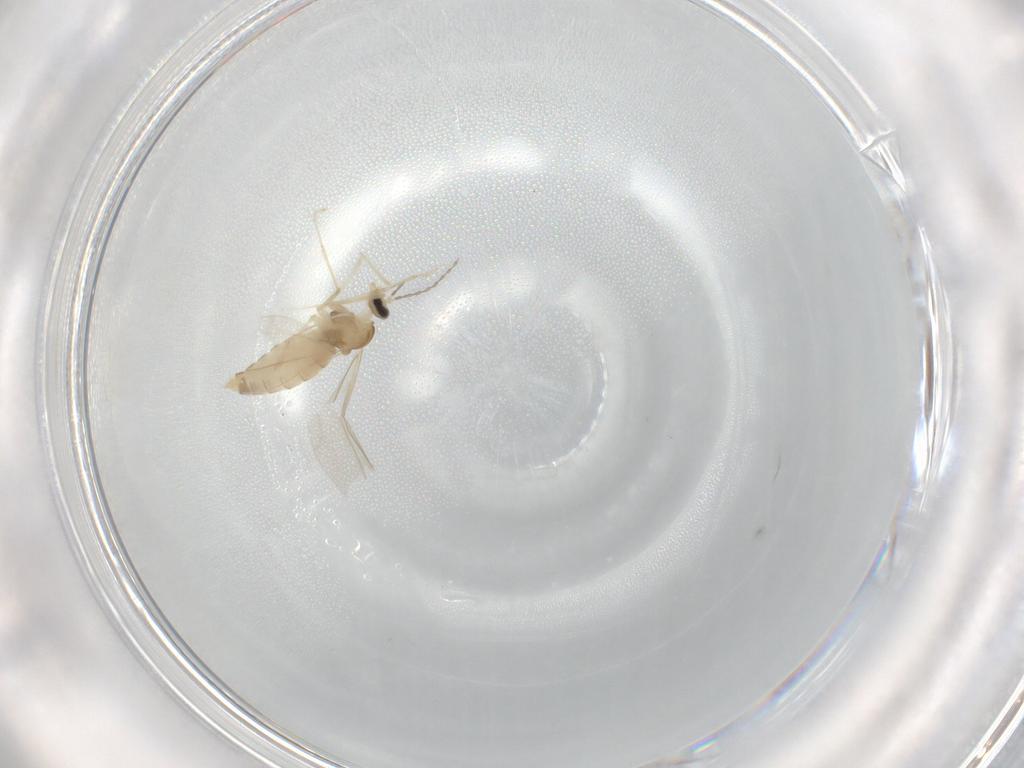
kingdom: Animalia
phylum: Arthropoda
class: Insecta
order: Diptera
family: Cecidomyiidae
